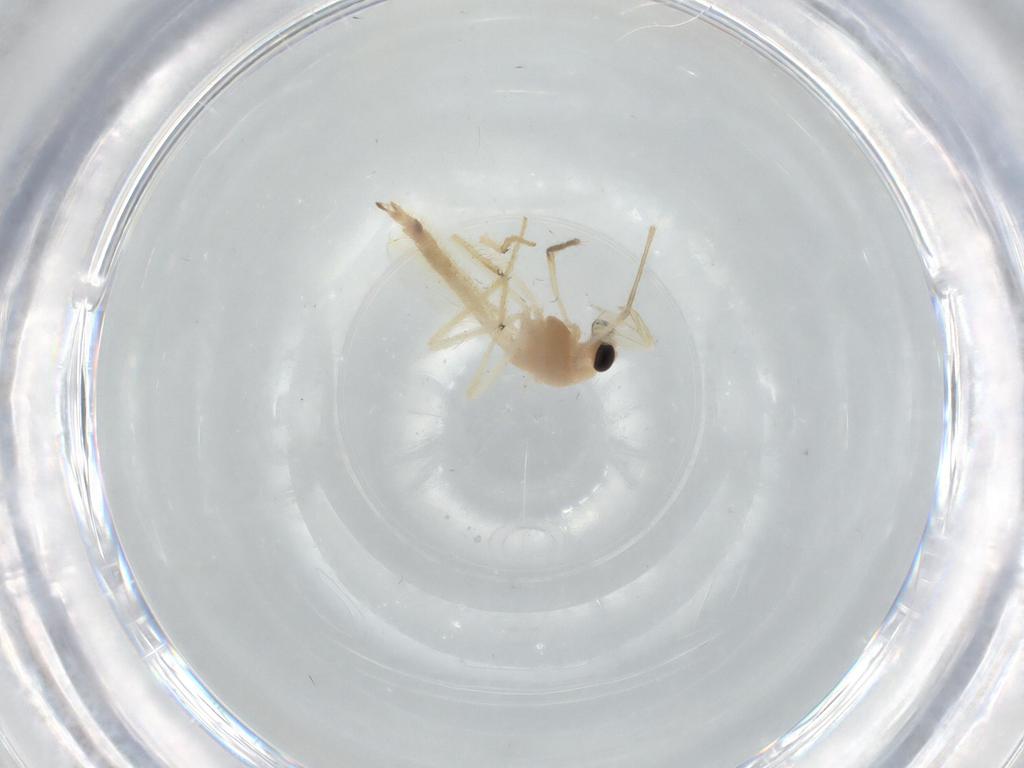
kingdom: Animalia
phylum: Arthropoda
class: Insecta
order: Diptera
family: Chironomidae
